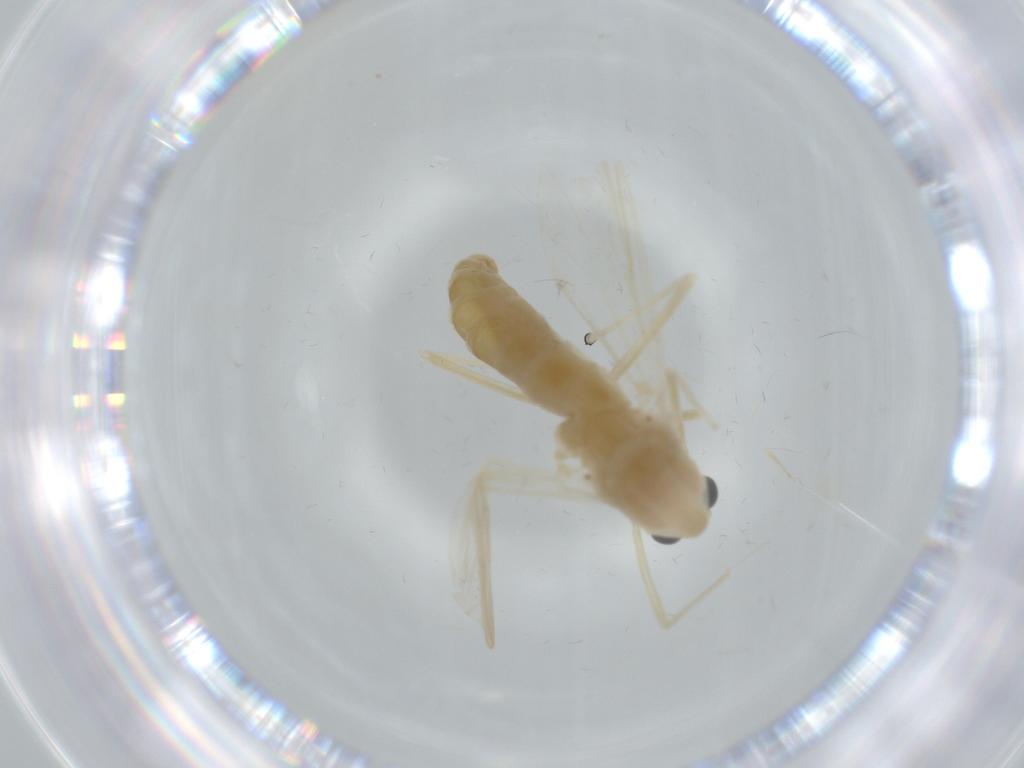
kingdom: Animalia
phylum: Arthropoda
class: Insecta
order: Diptera
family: Chironomidae
